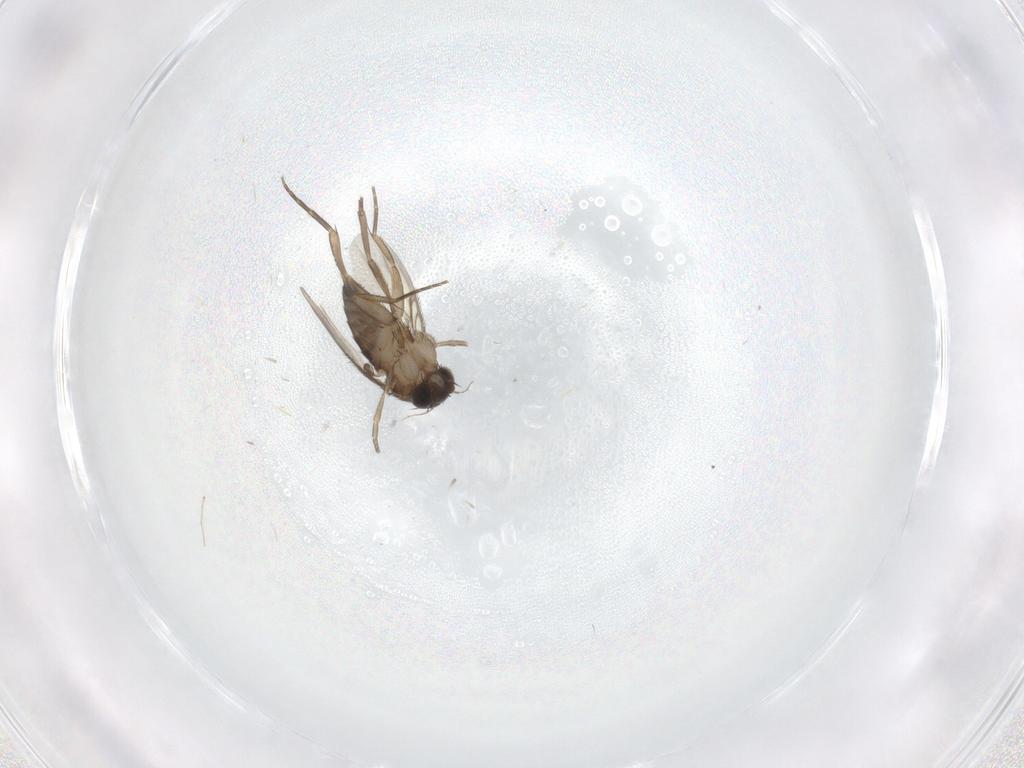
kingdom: Animalia
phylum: Arthropoda
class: Insecta
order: Diptera
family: Phoridae
